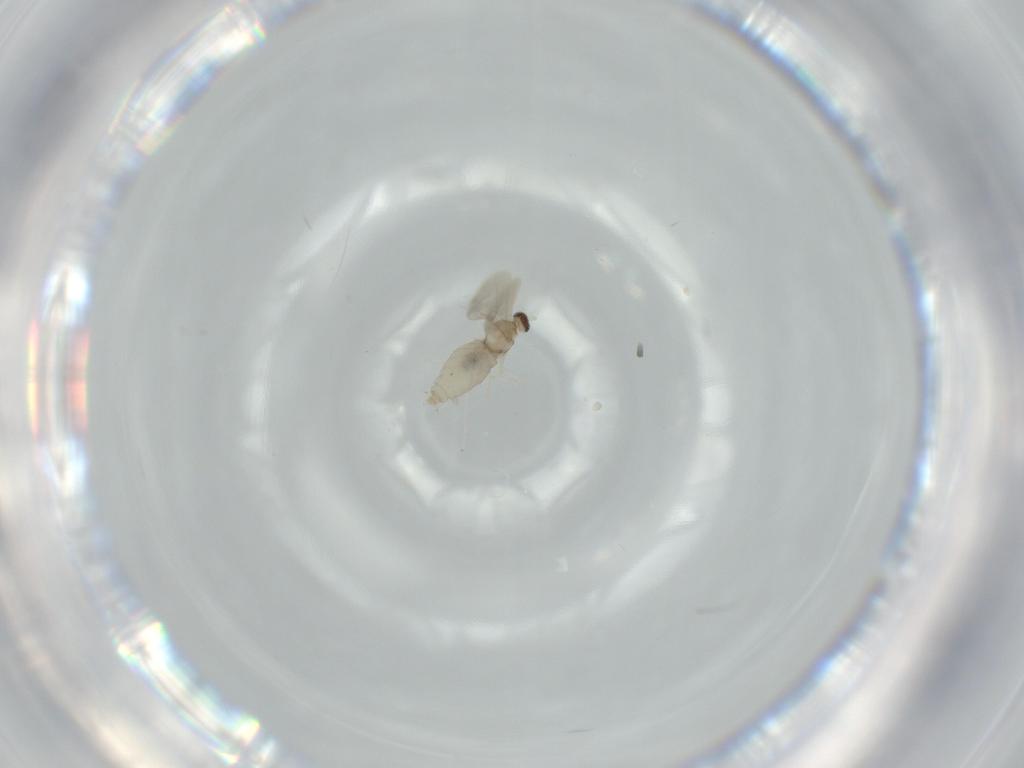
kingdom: Animalia
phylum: Arthropoda
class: Insecta
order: Diptera
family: Cecidomyiidae
